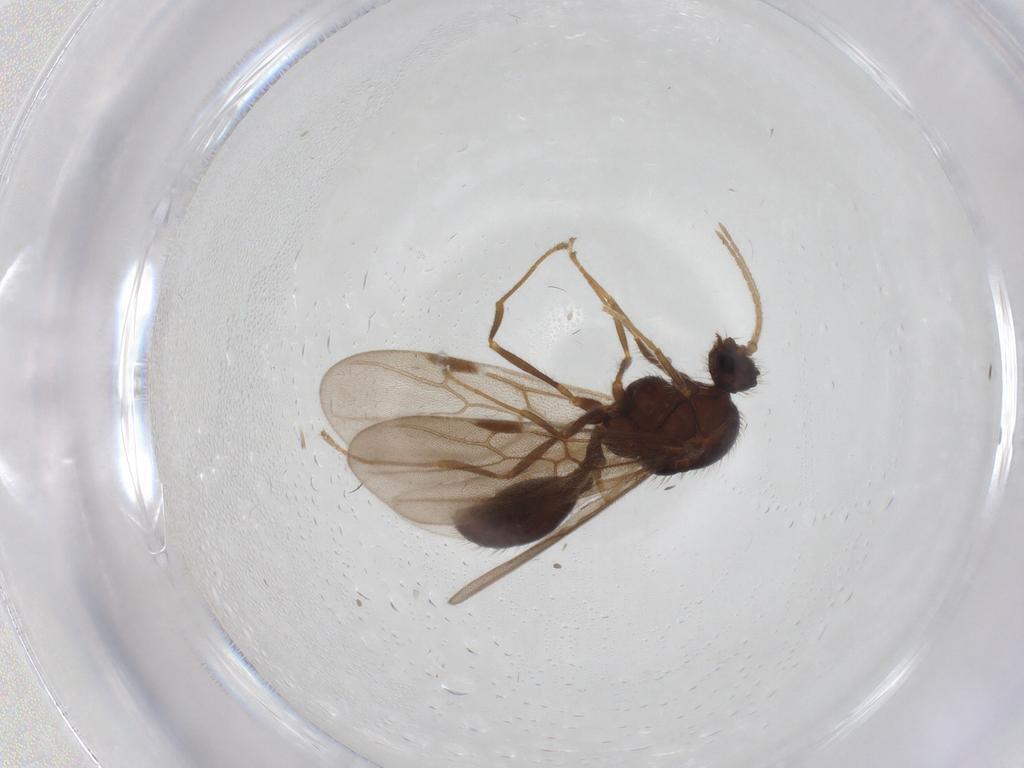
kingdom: Animalia
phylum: Arthropoda
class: Insecta
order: Hymenoptera
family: Formicidae
